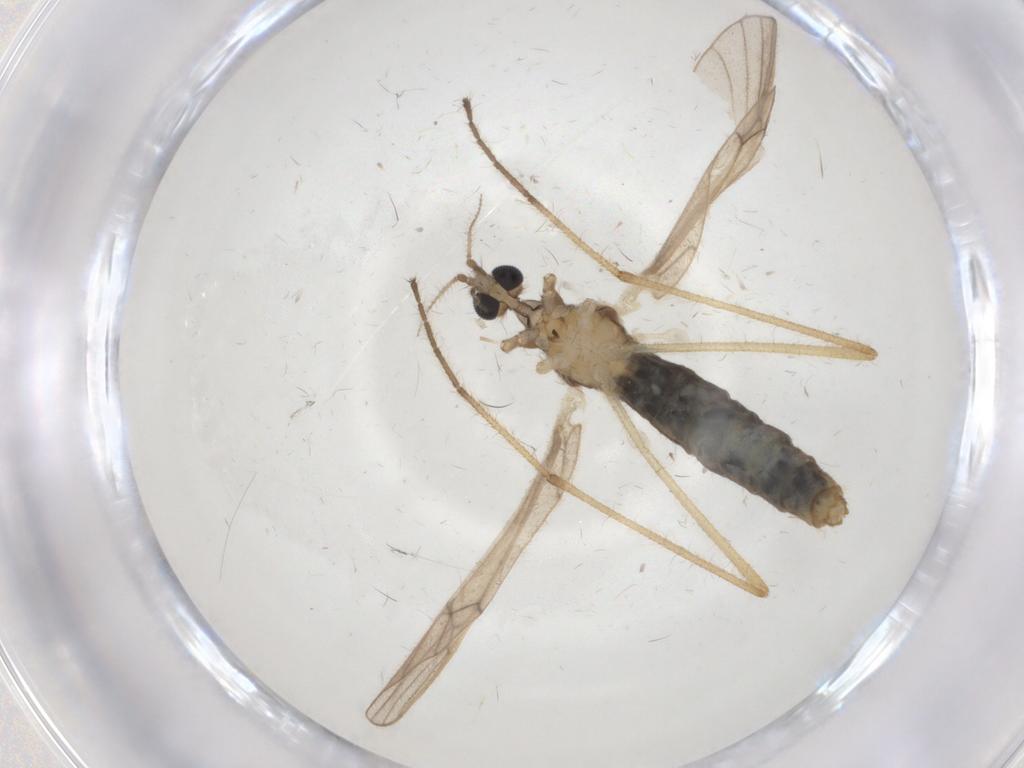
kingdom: Animalia
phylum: Arthropoda
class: Insecta
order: Diptera
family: Limoniidae
